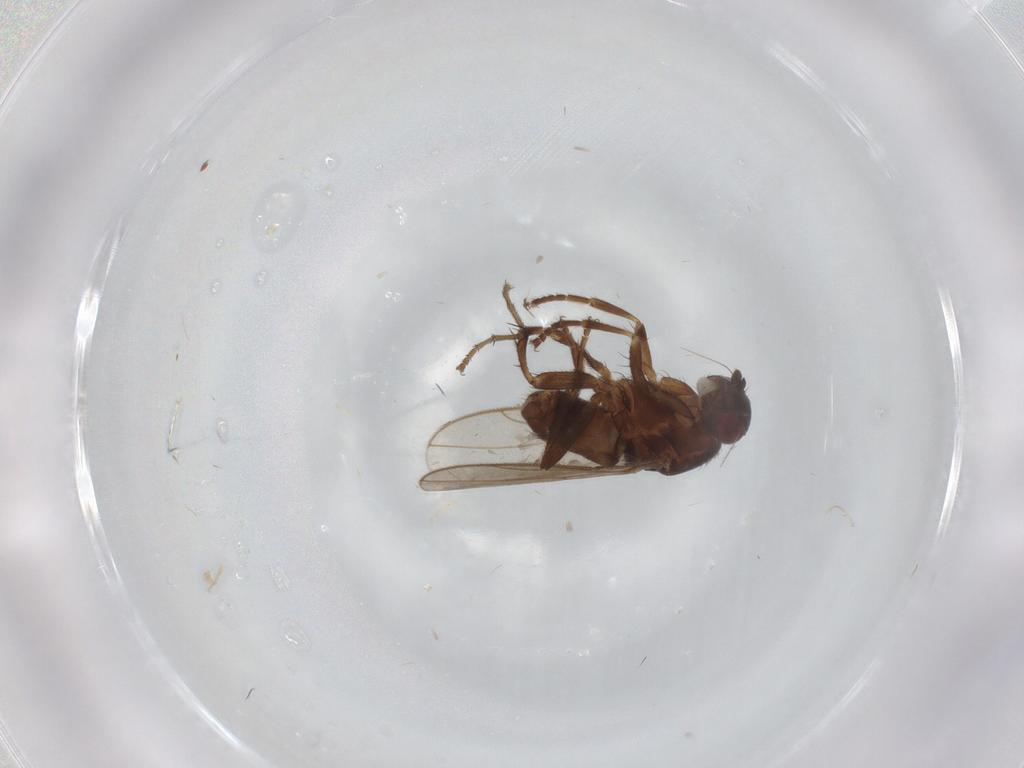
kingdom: Animalia
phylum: Arthropoda
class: Insecta
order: Diptera
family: Sphaeroceridae
